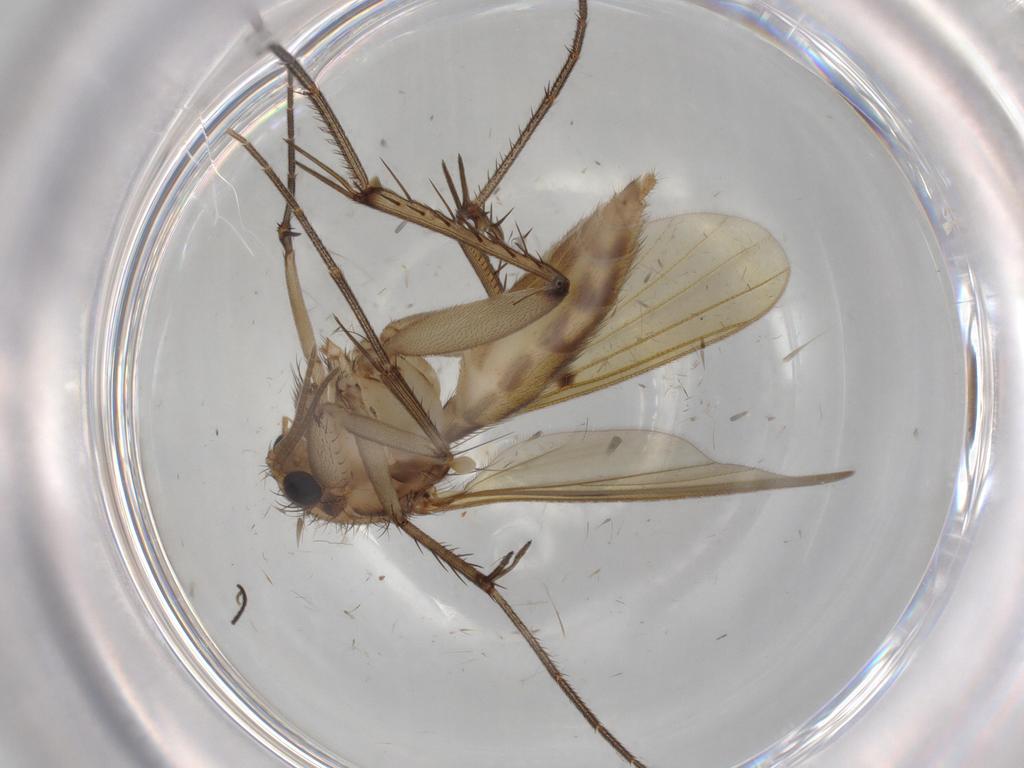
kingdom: Animalia
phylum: Arthropoda
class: Insecta
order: Diptera
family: Mycetophilidae
